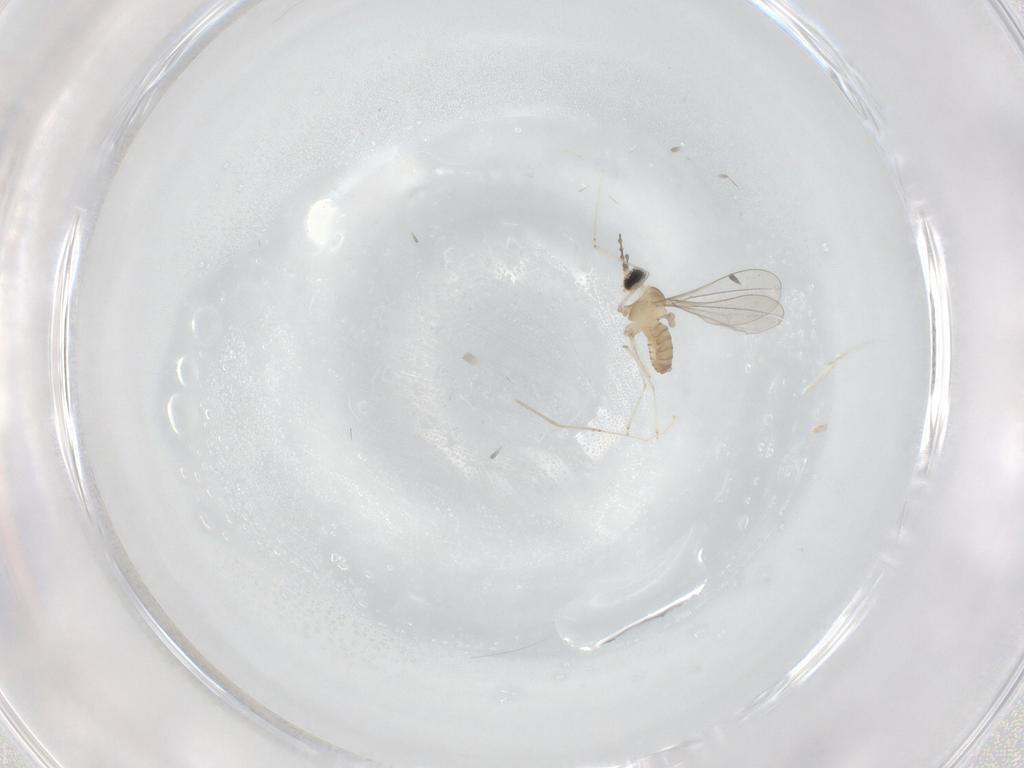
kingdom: Animalia
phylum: Arthropoda
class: Insecta
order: Diptera
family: Cecidomyiidae
